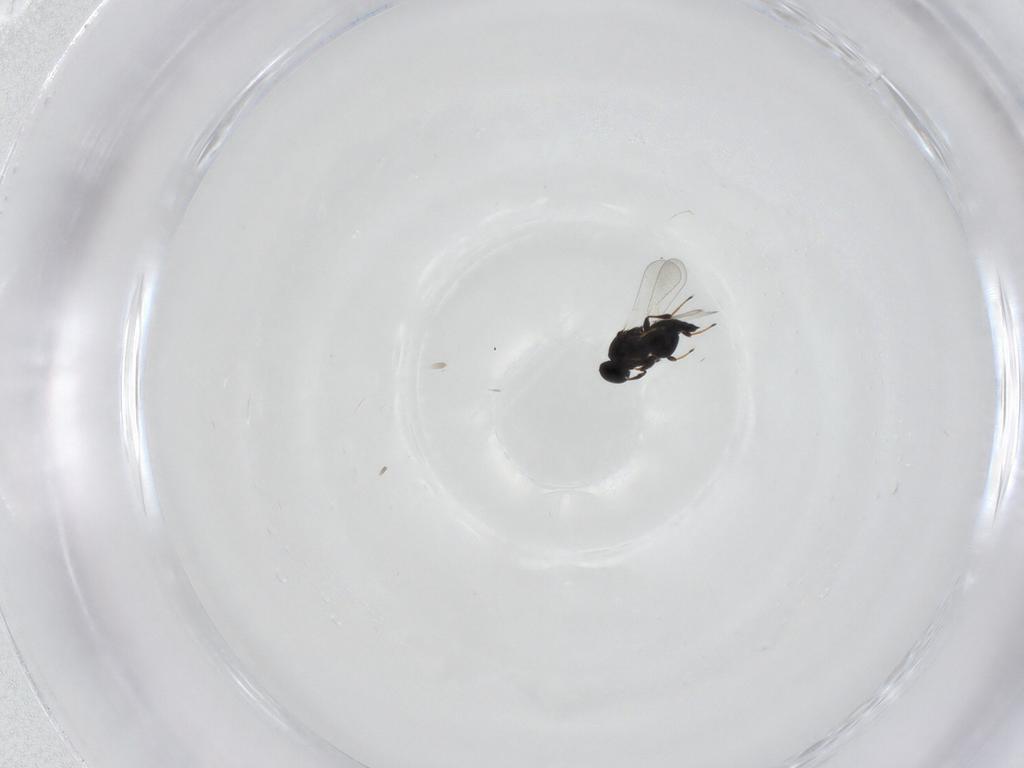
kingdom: Animalia
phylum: Arthropoda
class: Insecta
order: Hymenoptera
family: Platygastridae
